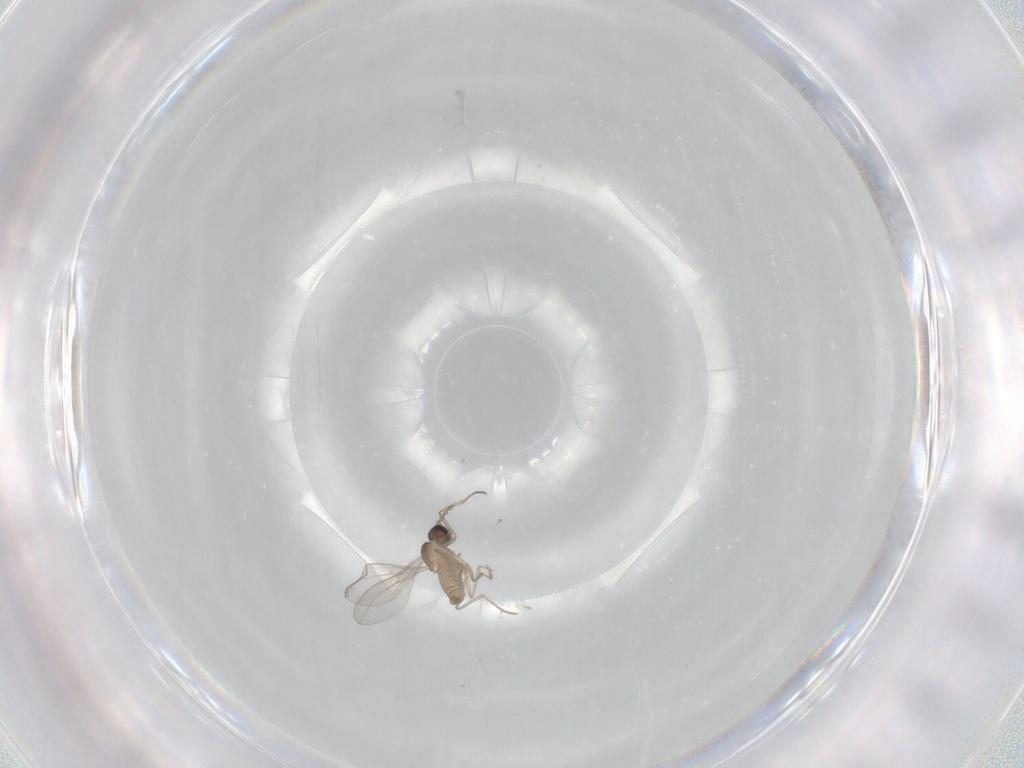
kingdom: Animalia
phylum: Arthropoda
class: Insecta
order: Diptera
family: Cecidomyiidae
